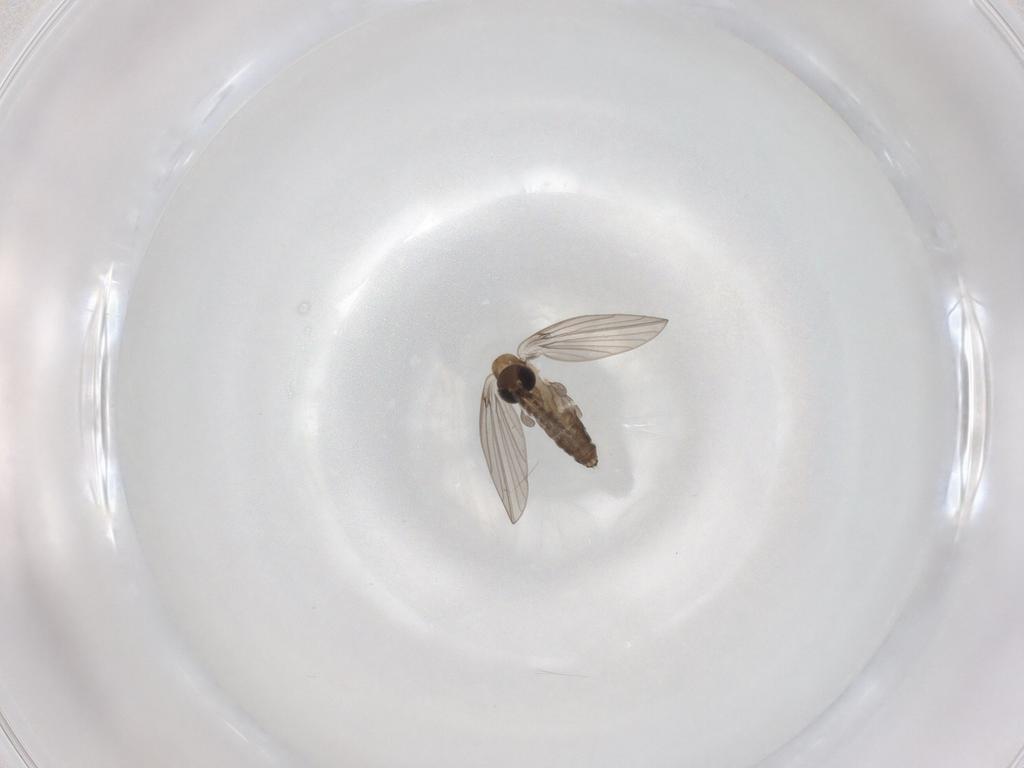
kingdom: Animalia
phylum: Arthropoda
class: Insecta
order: Diptera
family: Psychodidae
